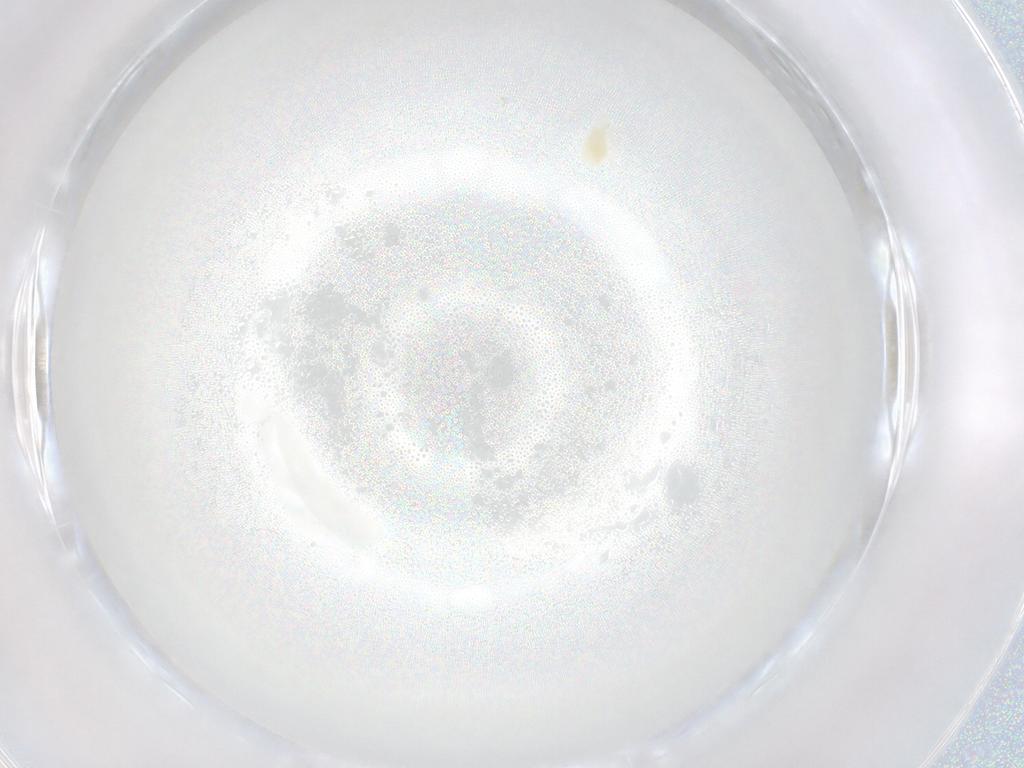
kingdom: Animalia
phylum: Arthropoda
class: Arachnida
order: Trombidiformes
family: Eupodidae
